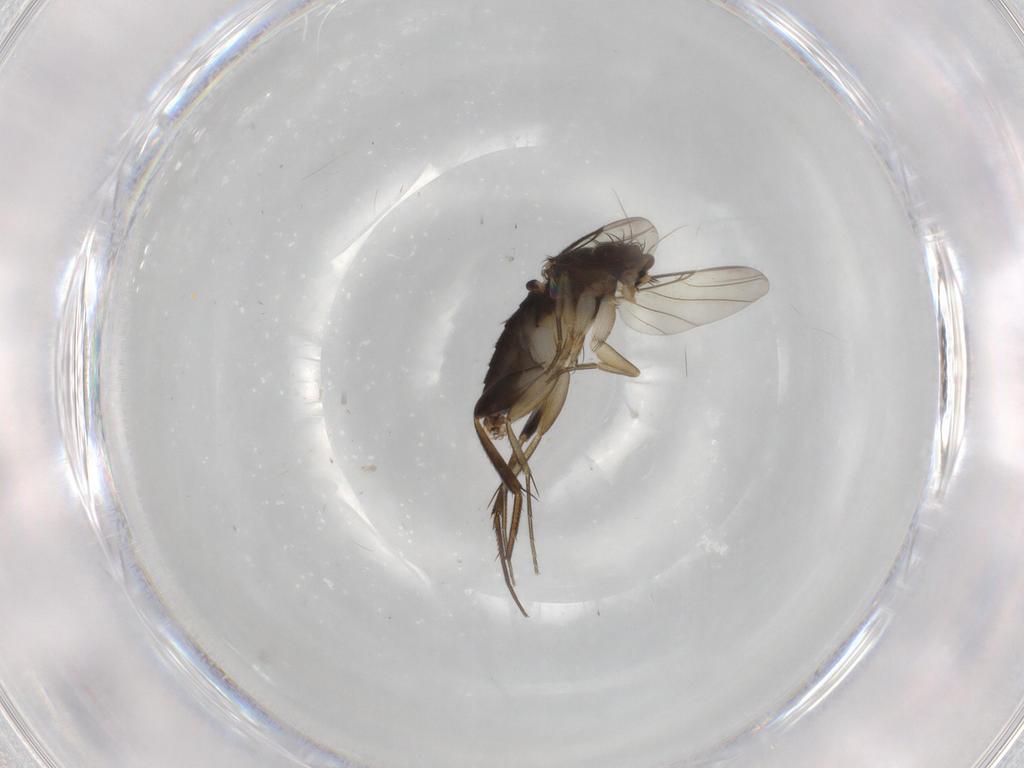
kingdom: Animalia
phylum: Arthropoda
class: Insecta
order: Diptera
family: Phoridae
